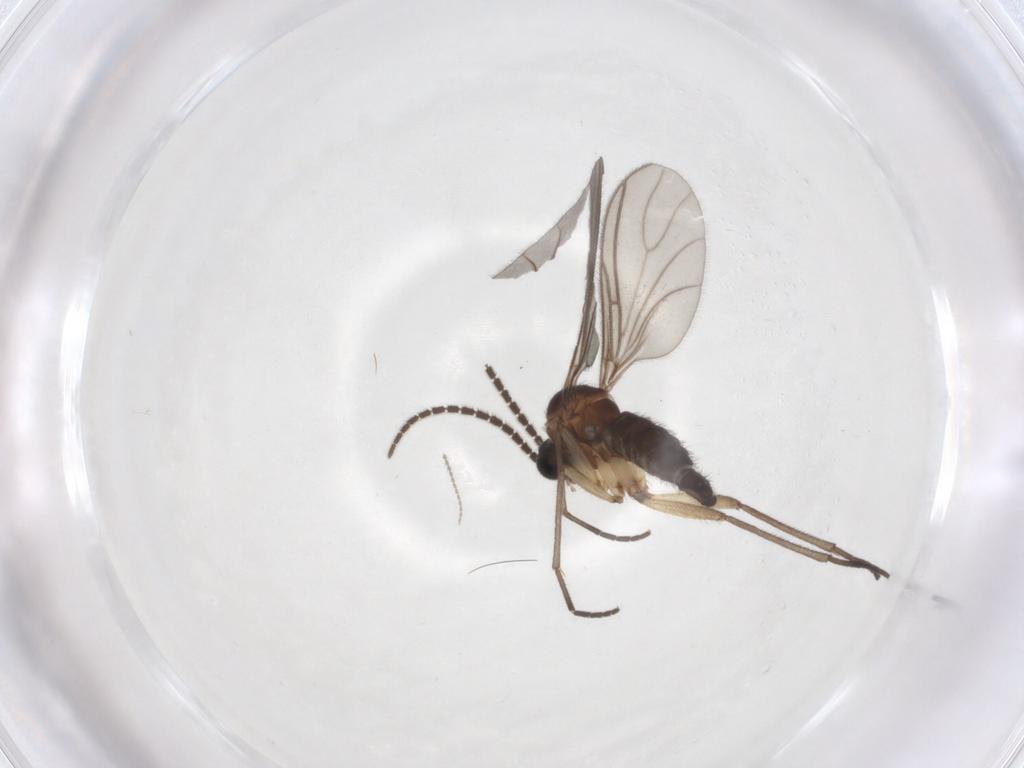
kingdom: Animalia
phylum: Arthropoda
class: Insecta
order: Diptera
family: Sciaridae
